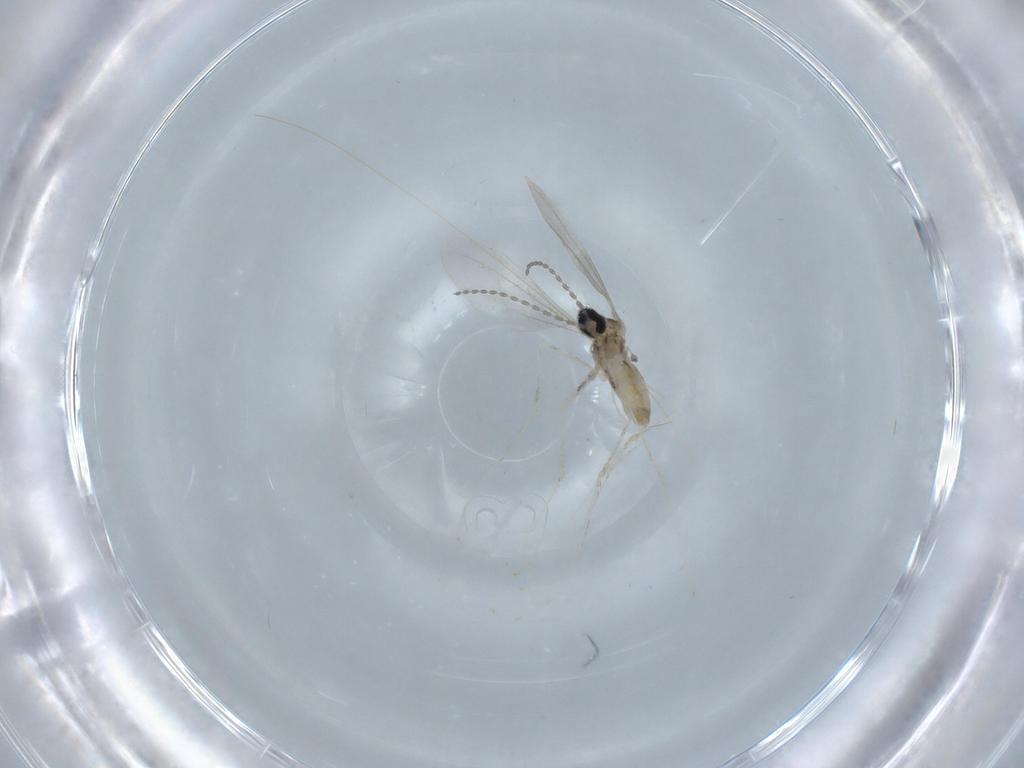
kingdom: Animalia
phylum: Arthropoda
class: Insecta
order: Diptera
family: Cecidomyiidae
